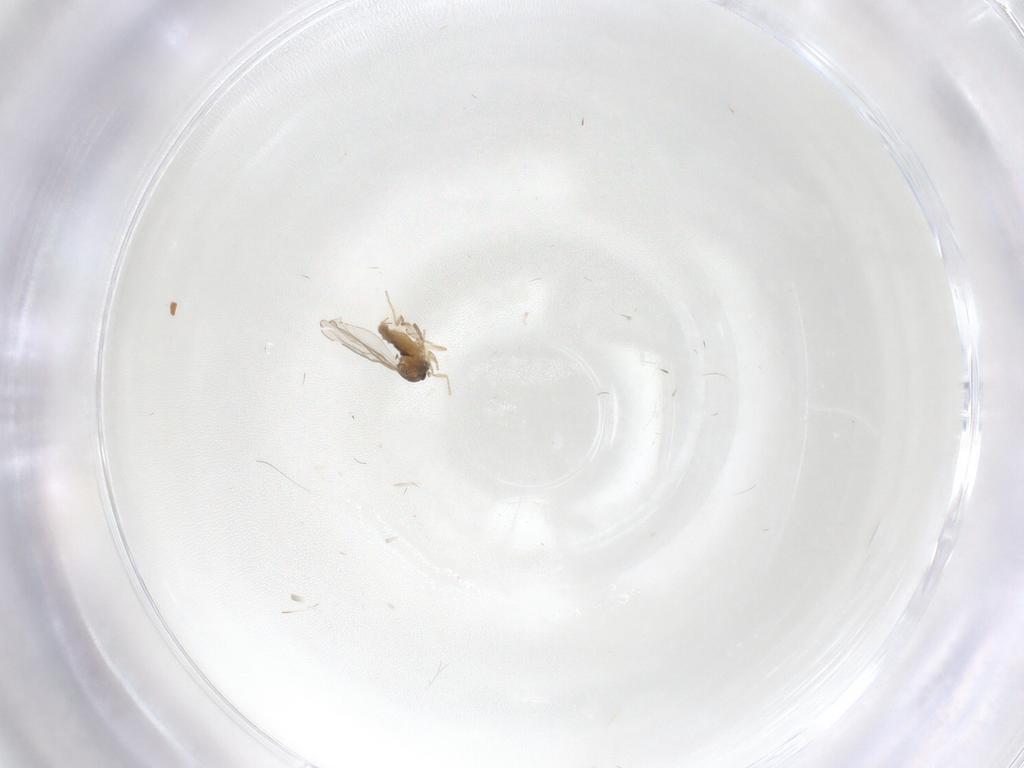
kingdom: Animalia
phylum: Arthropoda
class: Insecta
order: Diptera
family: Cecidomyiidae
